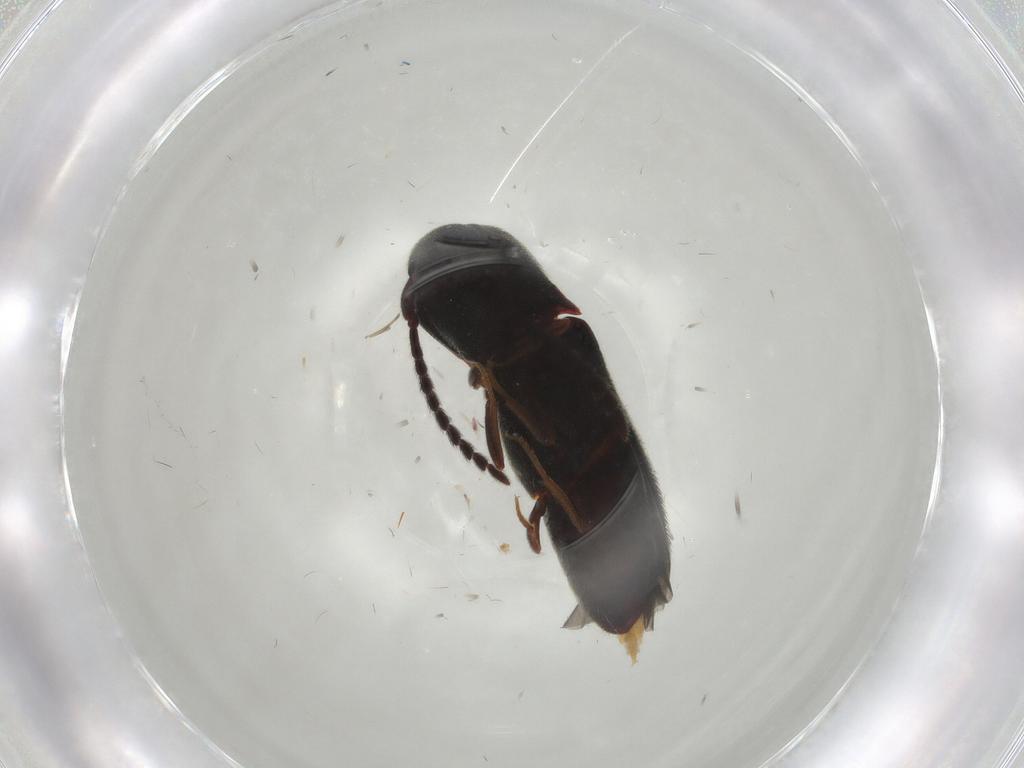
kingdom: Animalia
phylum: Arthropoda
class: Insecta
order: Coleoptera
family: Eucnemidae
